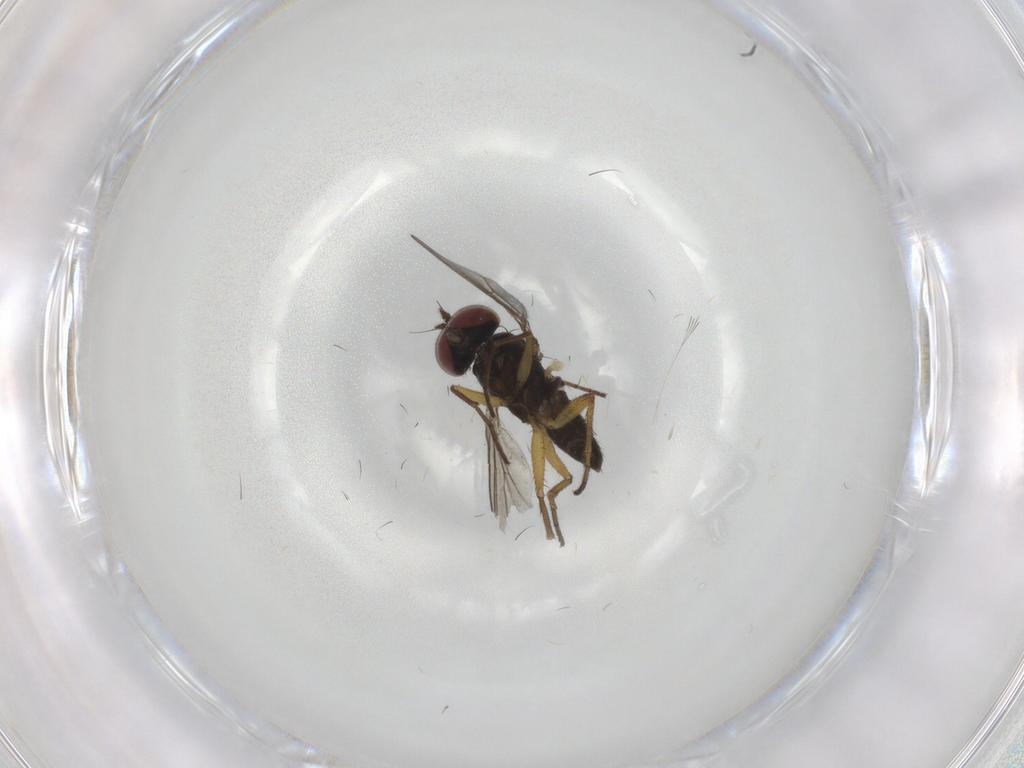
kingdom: Animalia
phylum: Arthropoda
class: Insecta
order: Diptera
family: Dolichopodidae
